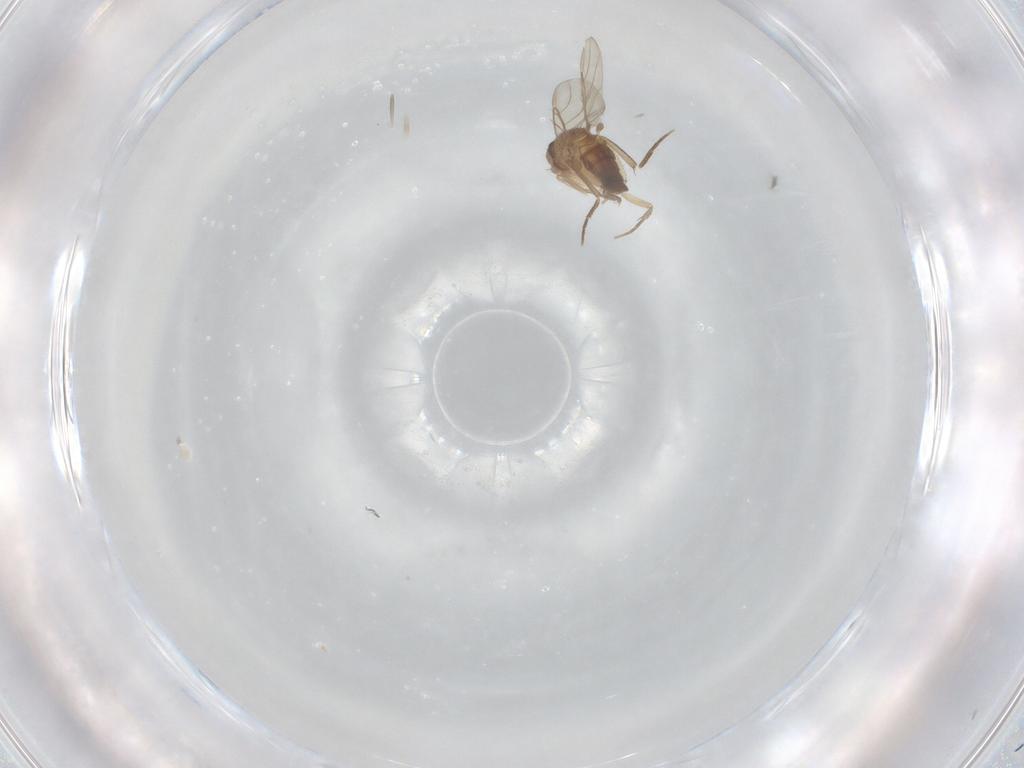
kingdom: Animalia
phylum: Arthropoda
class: Insecta
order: Diptera
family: Phoridae
